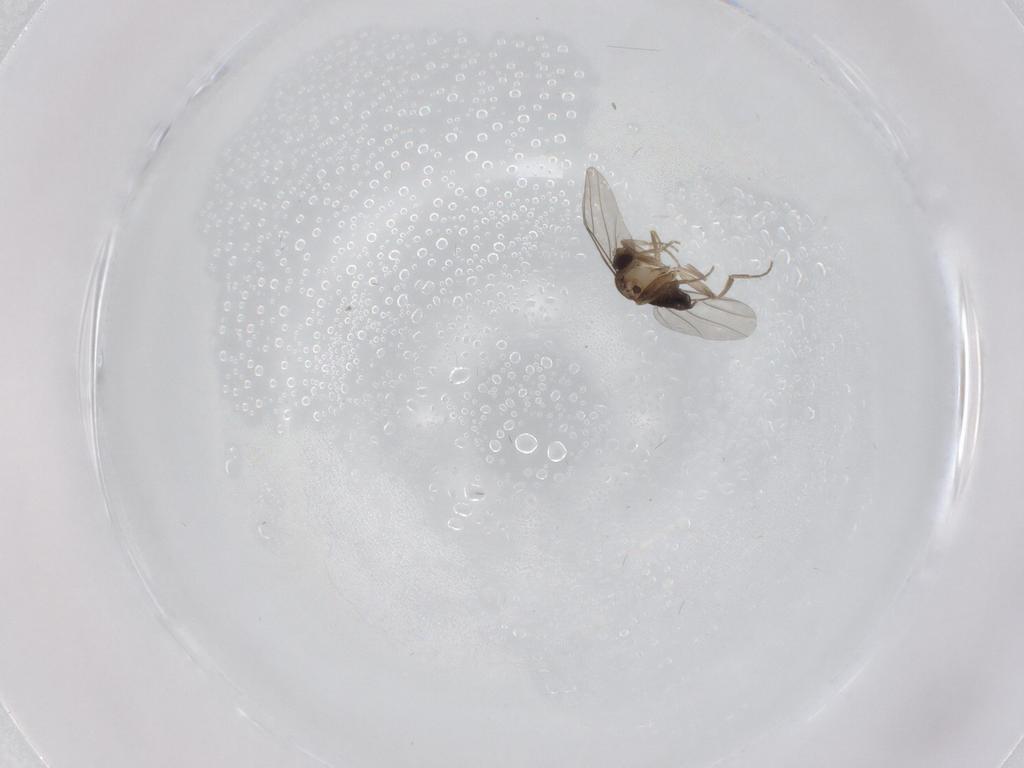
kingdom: Animalia
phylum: Arthropoda
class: Insecta
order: Diptera
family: Phoridae
